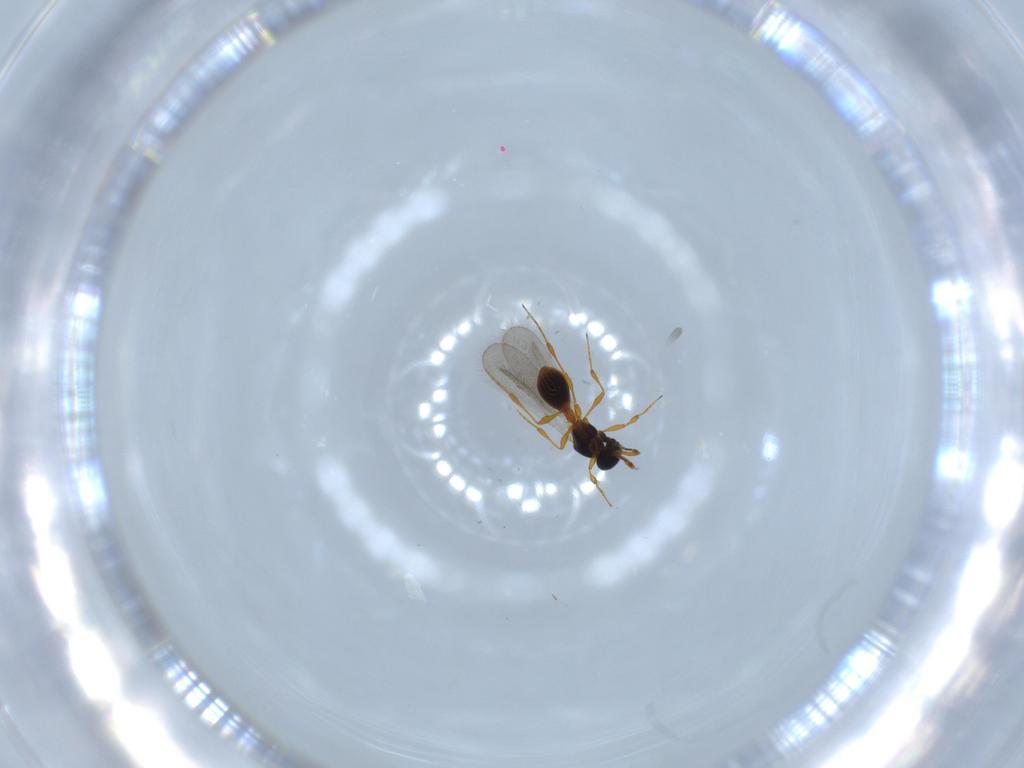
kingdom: Animalia
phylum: Arthropoda
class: Insecta
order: Hymenoptera
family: Platygastridae
